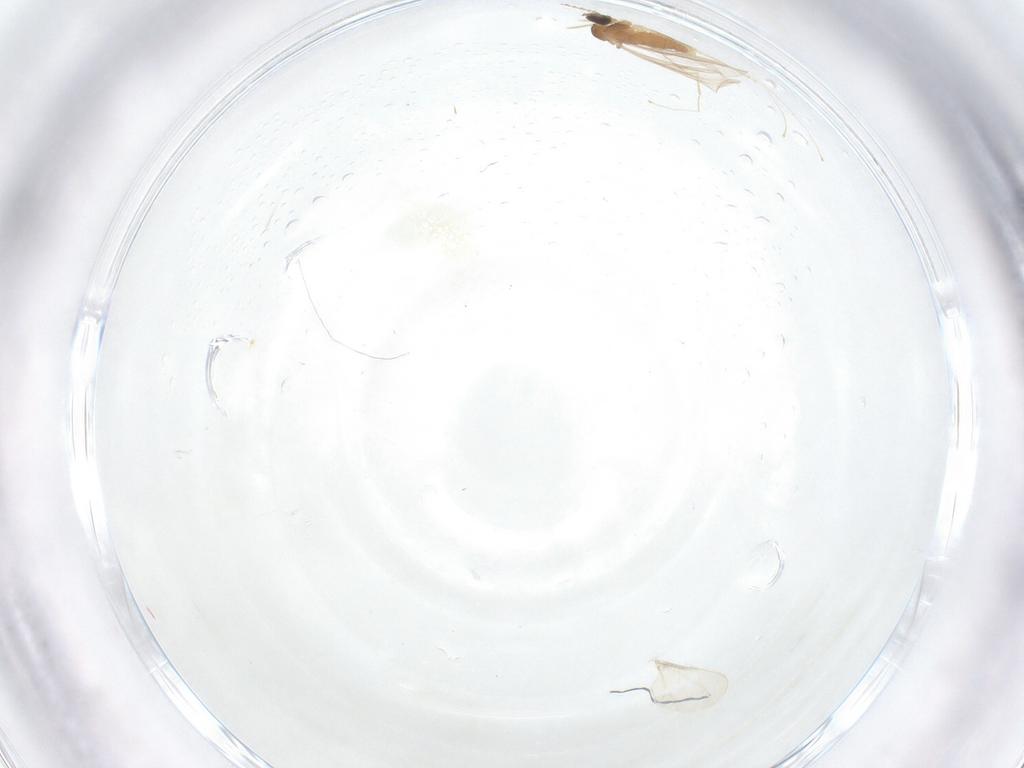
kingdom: Animalia
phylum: Arthropoda
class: Insecta
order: Diptera
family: Cecidomyiidae
